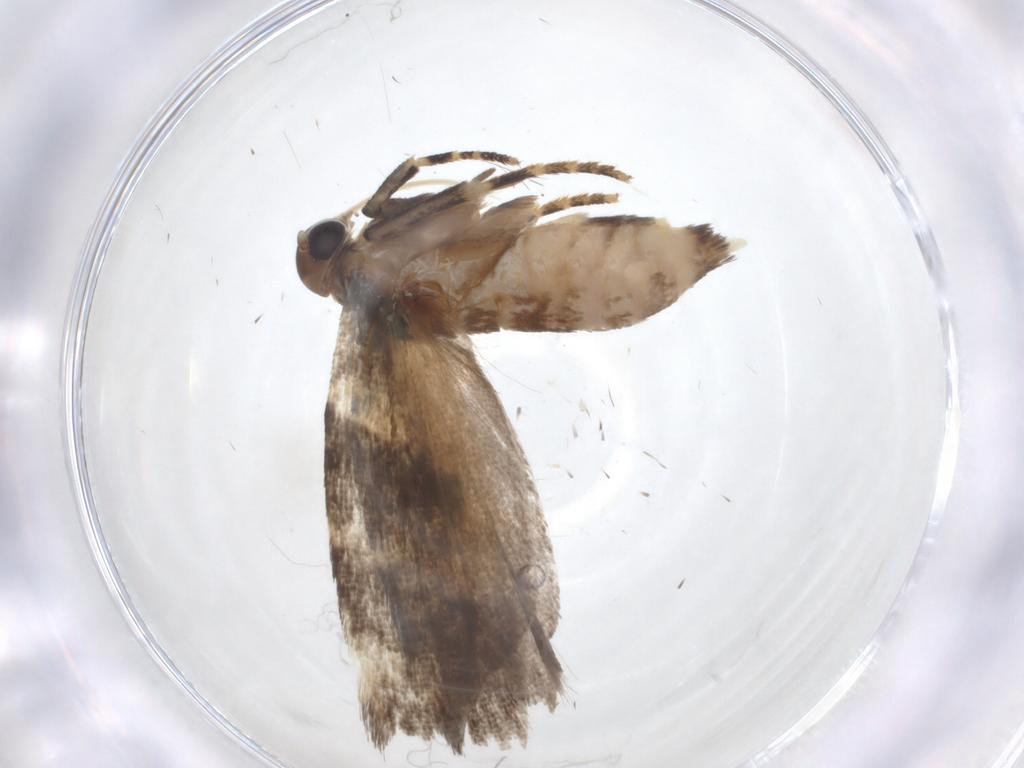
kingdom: Animalia
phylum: Arthropoda
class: Insecta
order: Lepidoptera
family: Gelechiidae
